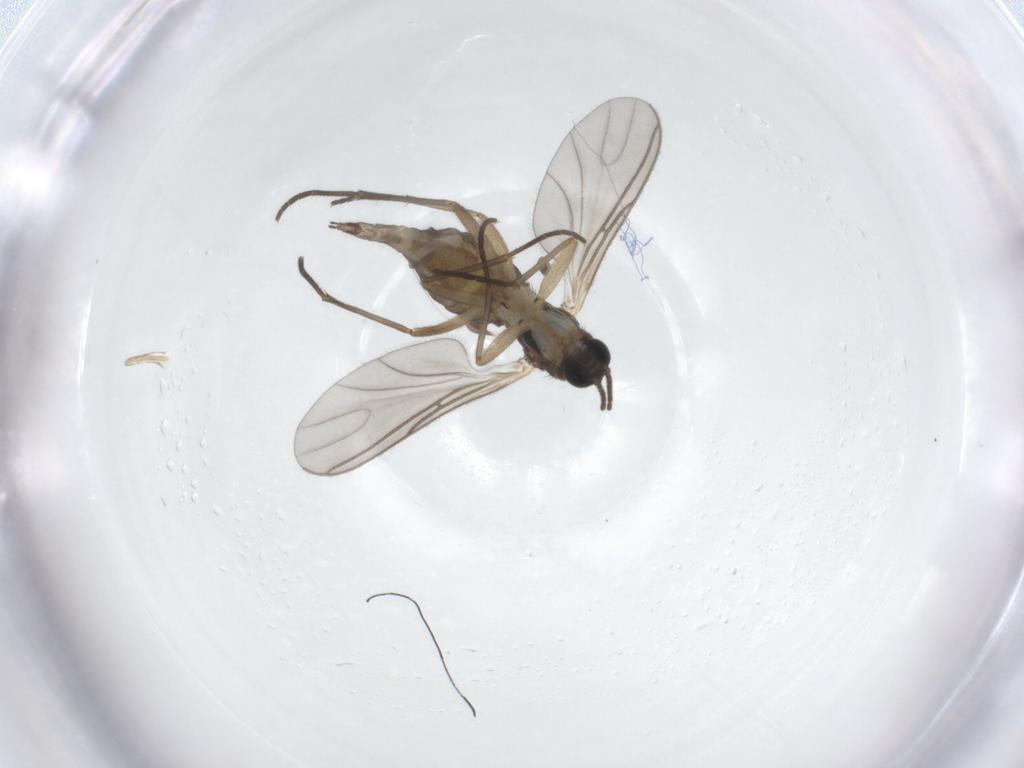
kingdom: Animalia
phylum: Arthropoda
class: Insecta
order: Diptera
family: Sciaridae
